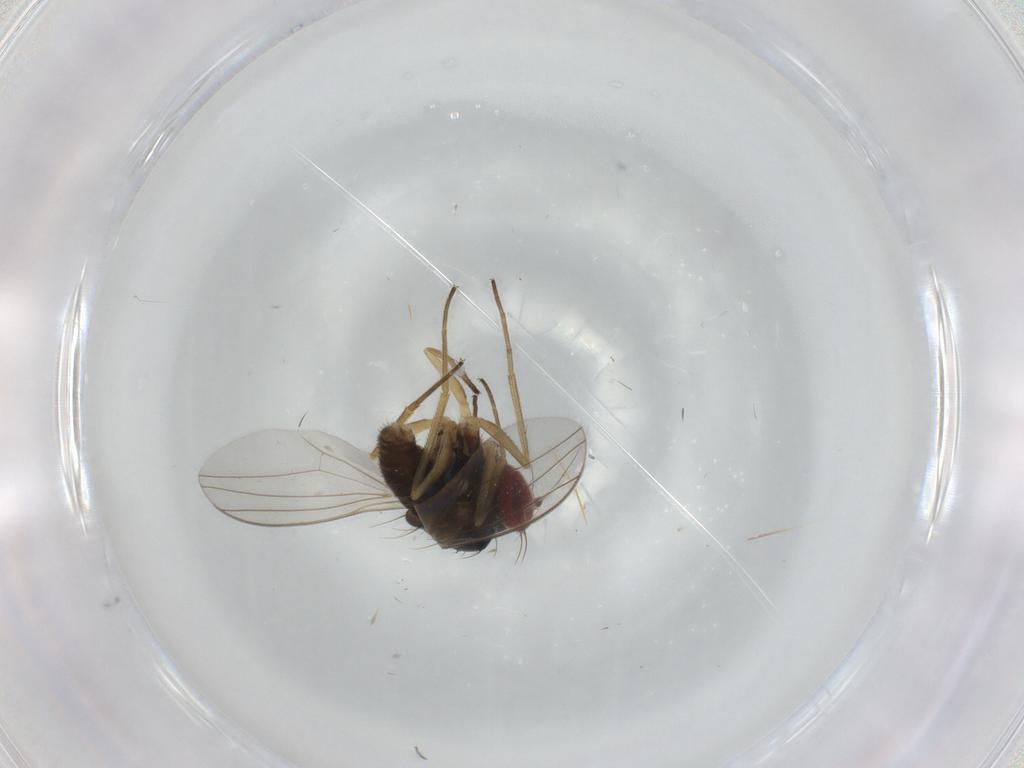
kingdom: Animalia
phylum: Arthropoda
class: Insecta
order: Diptera
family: Dolichopodidae
